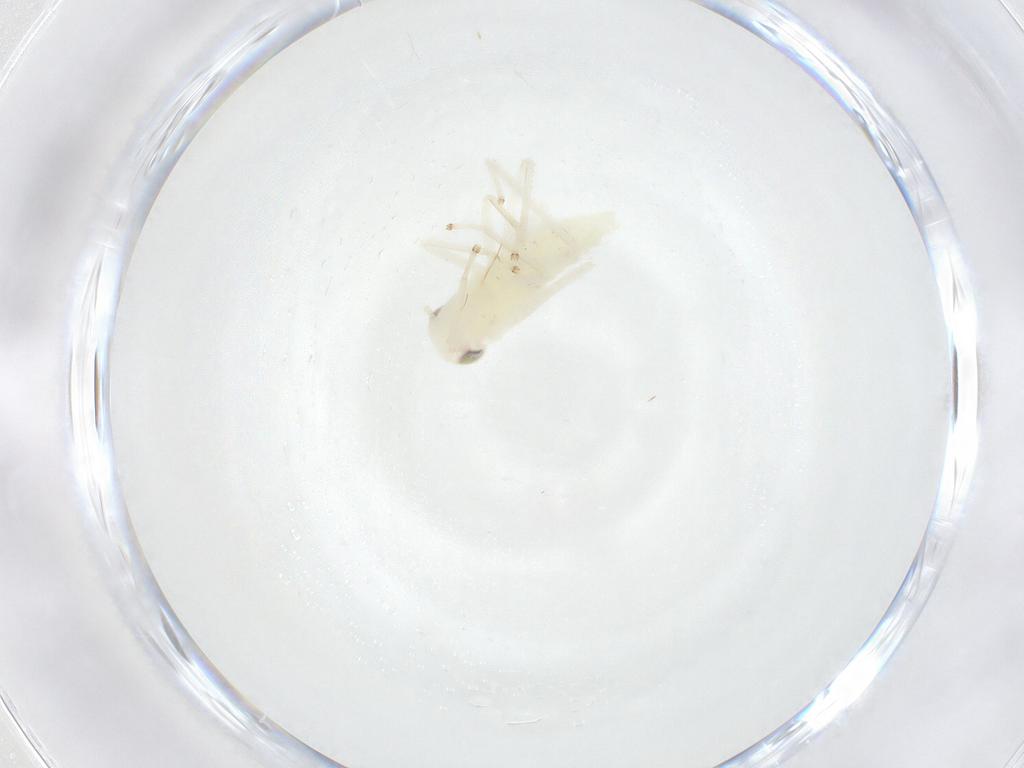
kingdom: Animalia
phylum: Arthropoda
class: Insecta
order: Hemiptera
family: Cicadellidae
